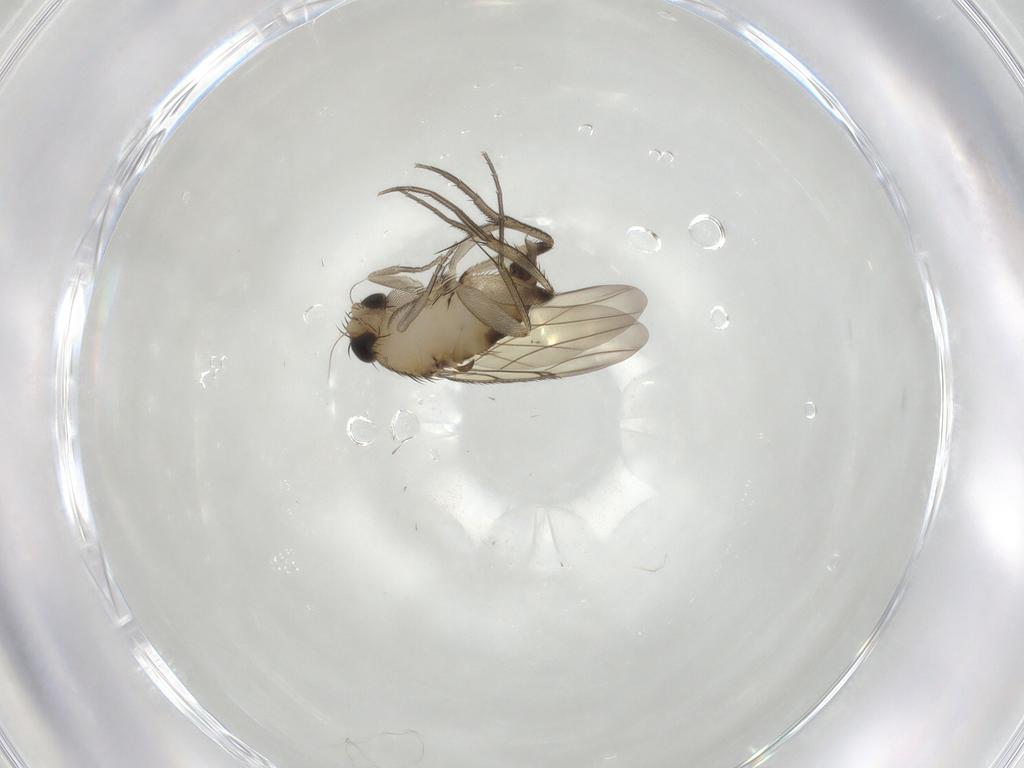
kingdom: Animalia
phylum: Arthropoda
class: Insecta
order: Diptera
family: Phoridae
